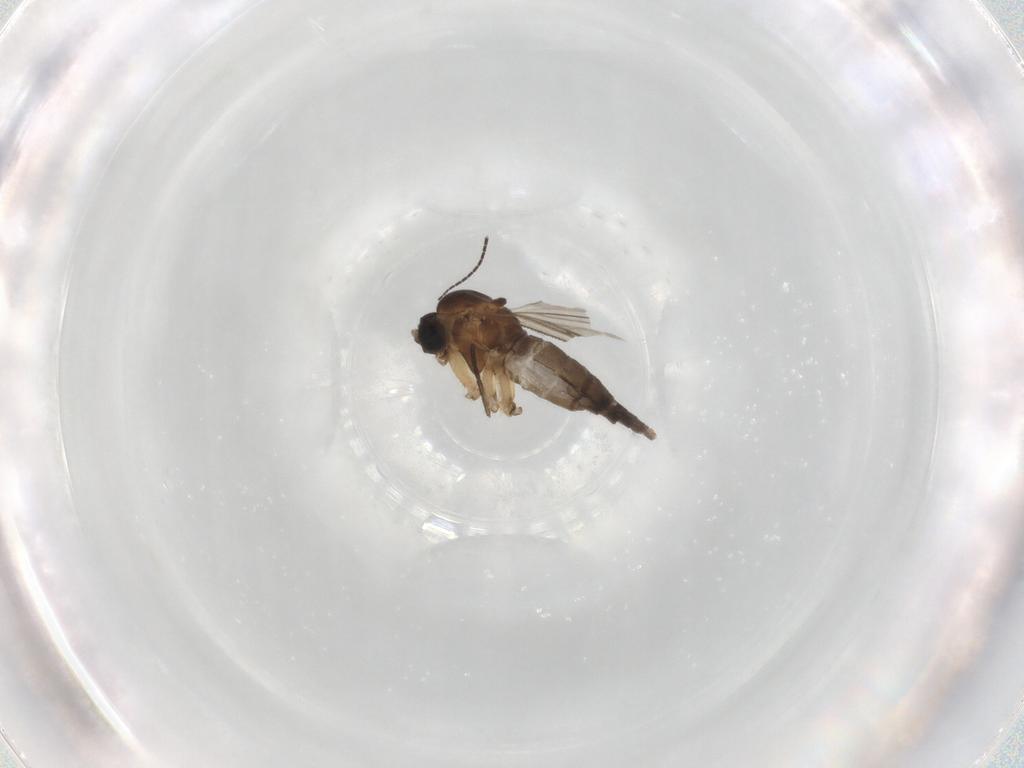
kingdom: Animalia
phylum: Arthropoda
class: Insecta
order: Diptera
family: Sciaridae
